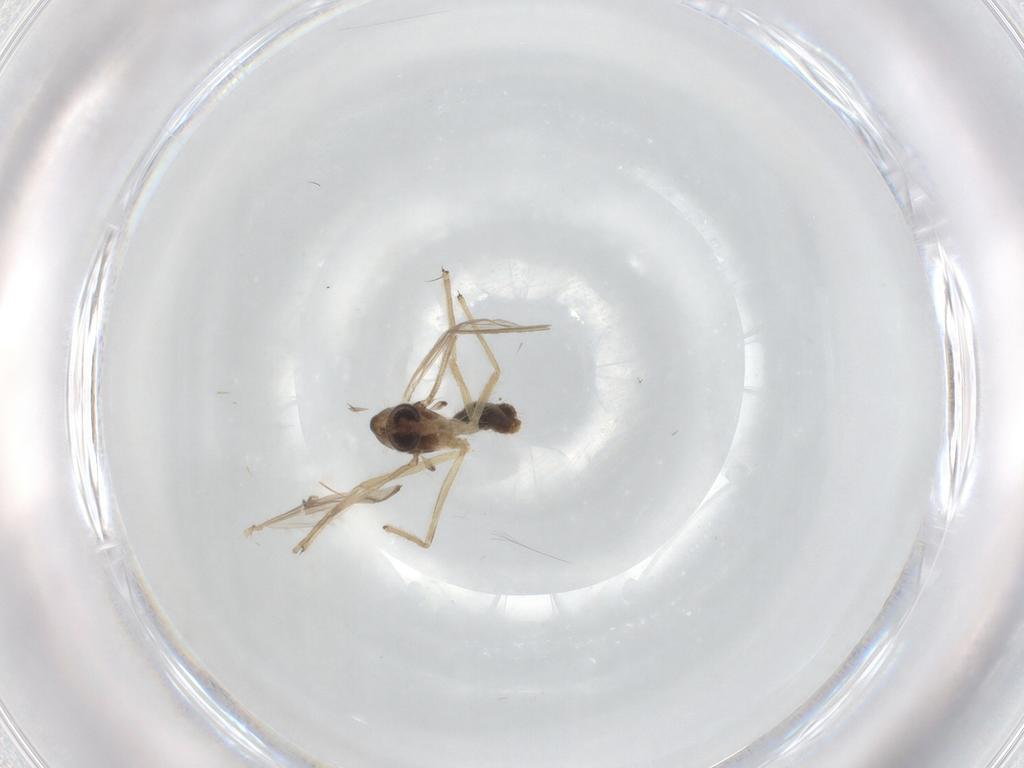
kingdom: Animalia
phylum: Arthropoda
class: Insecta
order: Diptera
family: Chironomidae
